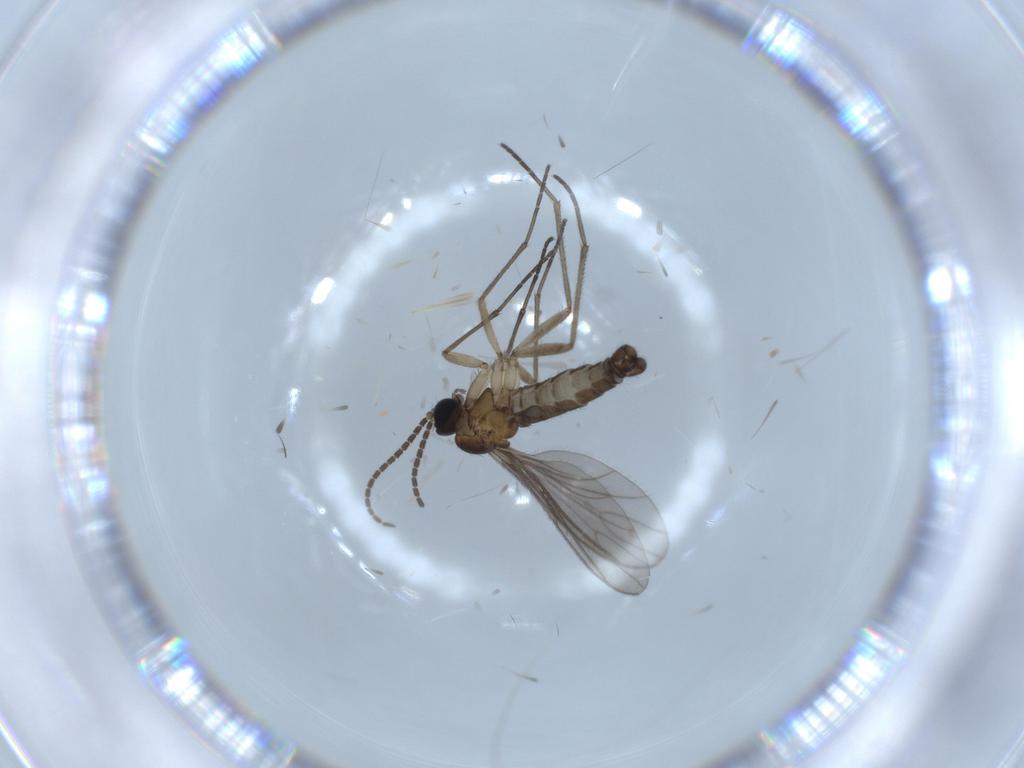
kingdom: Animalia
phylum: Arthropoda
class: Insecta
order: Diptera
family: Sciaridae
